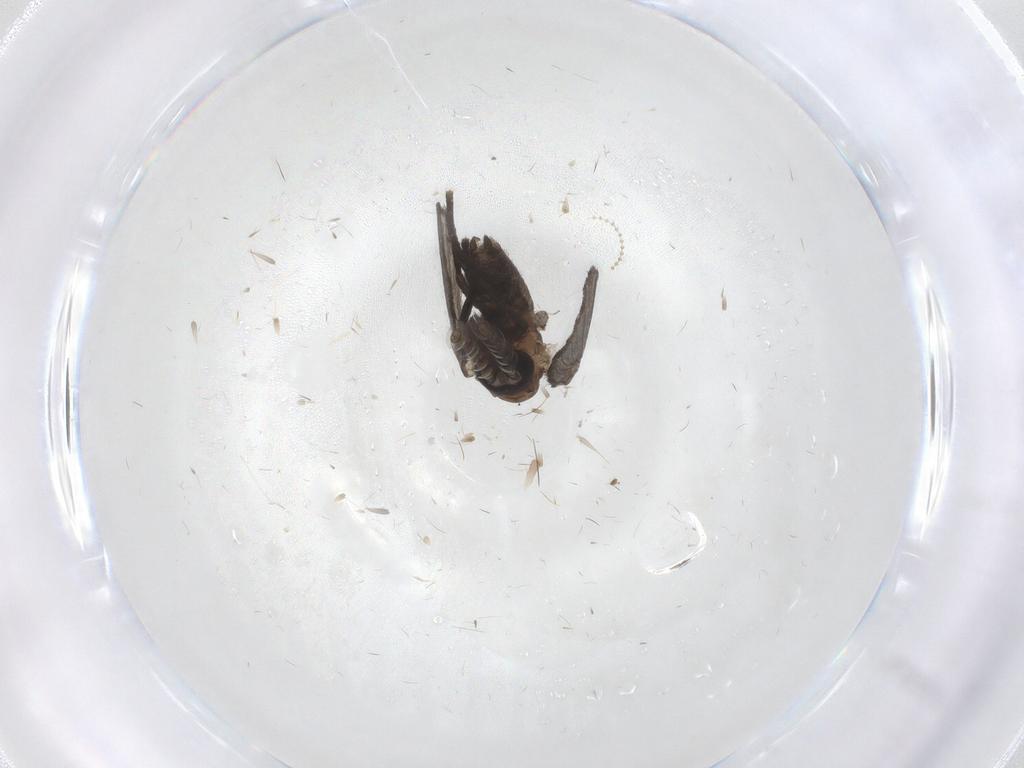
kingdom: Animalia
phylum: Arthropoda
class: Insecta
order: Diptera
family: Psychodidae
